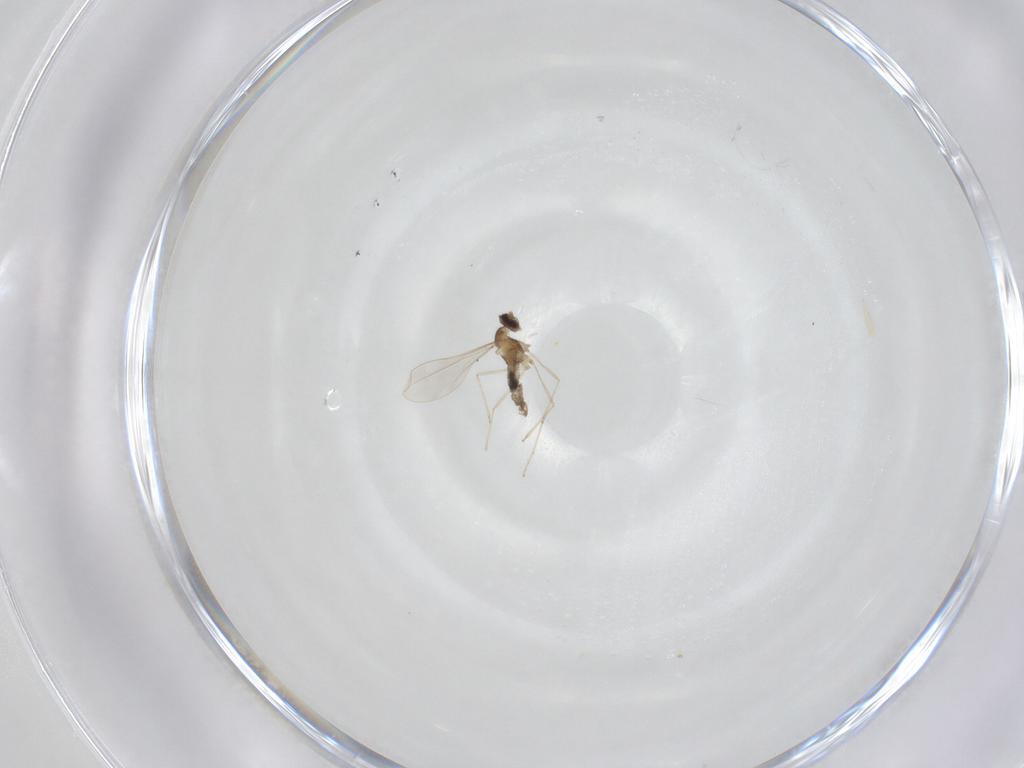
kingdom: Animalia
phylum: Arthropoda
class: Insecta
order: Diptera
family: Cecidomyiidae
